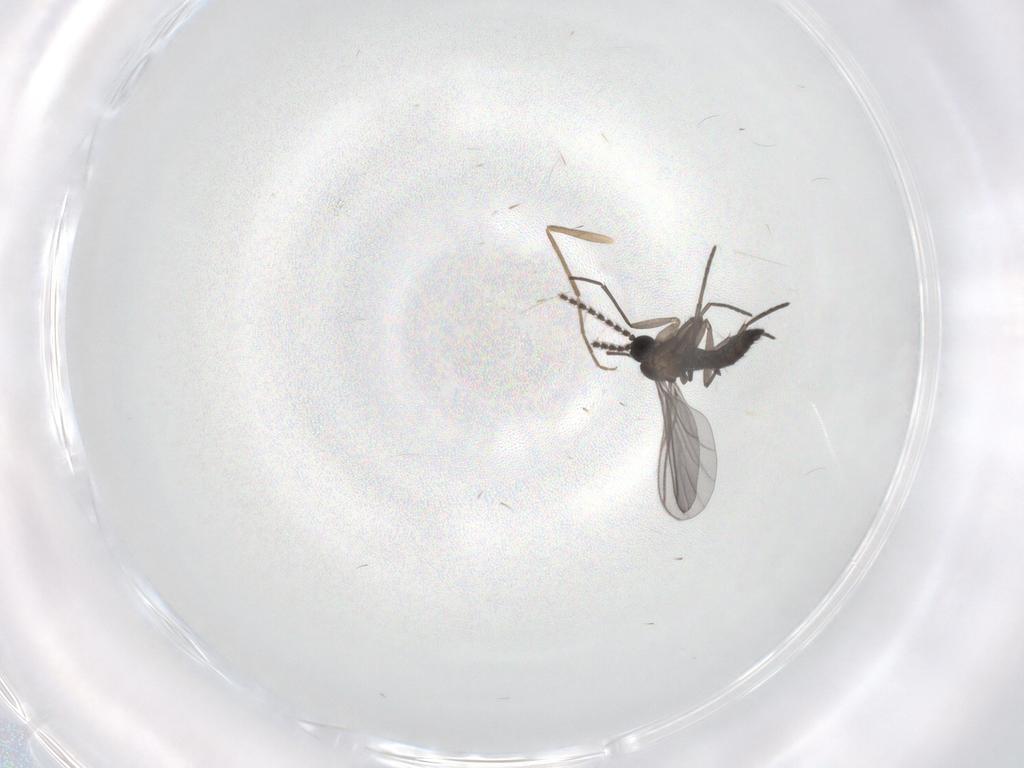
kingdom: Animalia
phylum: Arthropoda
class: Insecta
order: Diptera
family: Chironomidae
